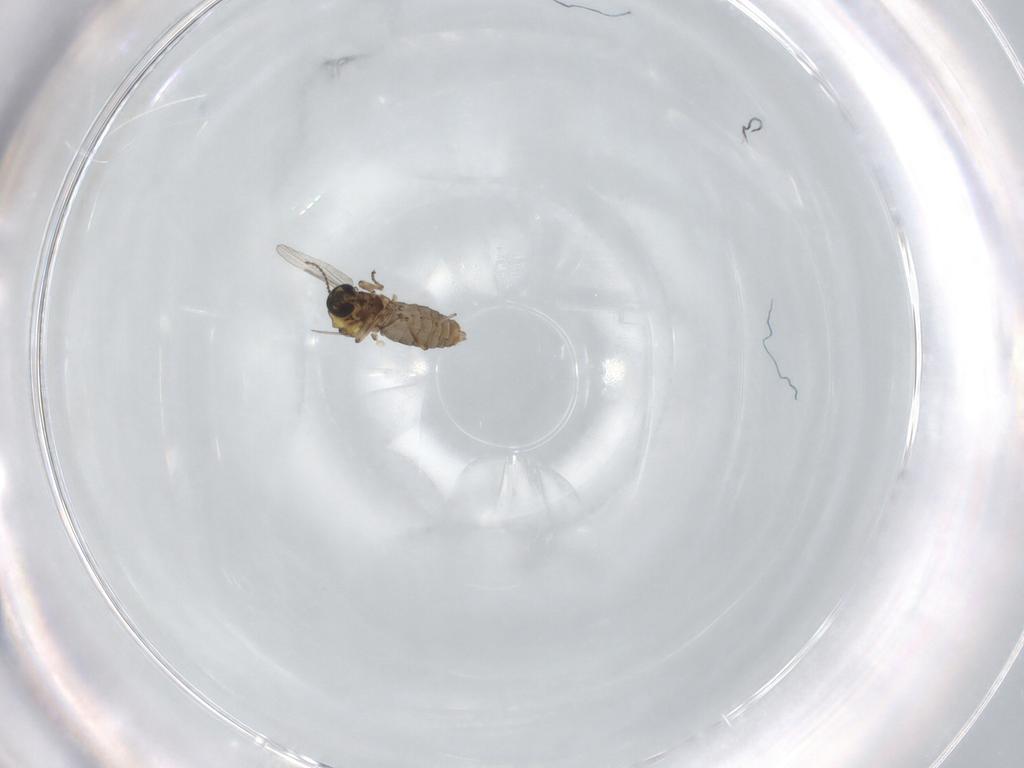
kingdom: Animalia
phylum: Arthropoda
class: Insecta
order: Diptera
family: Ceratopogonidae
